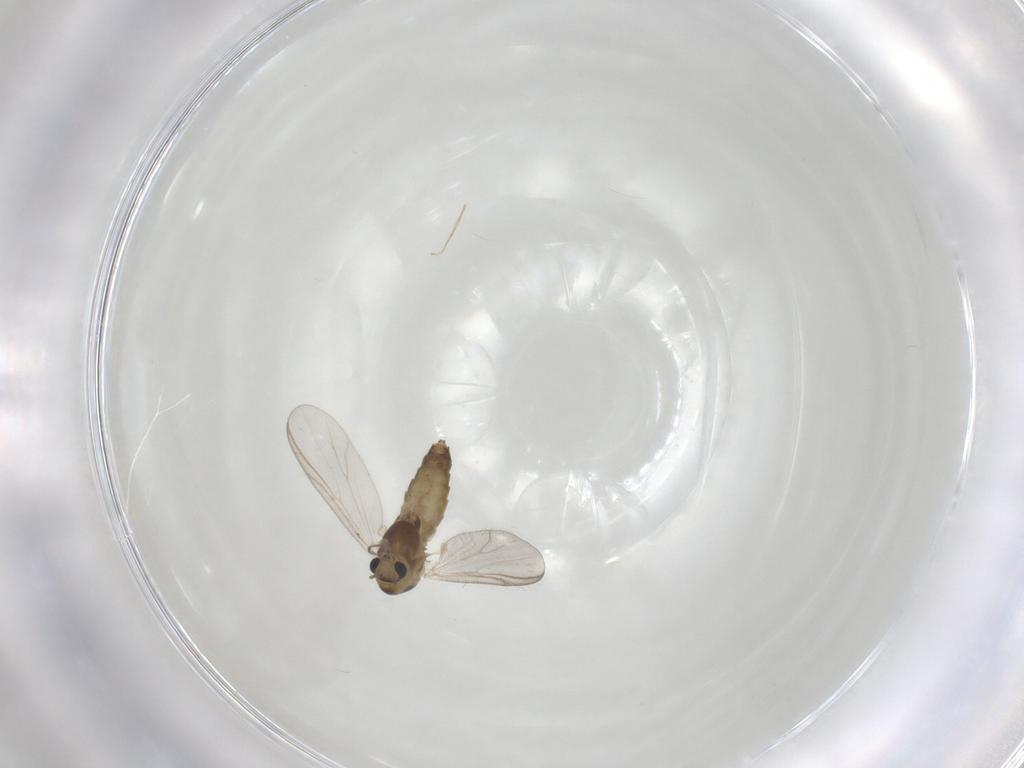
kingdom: Animalia
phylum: Arthropoda
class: Insecta
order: Diptera
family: Chironomidae
